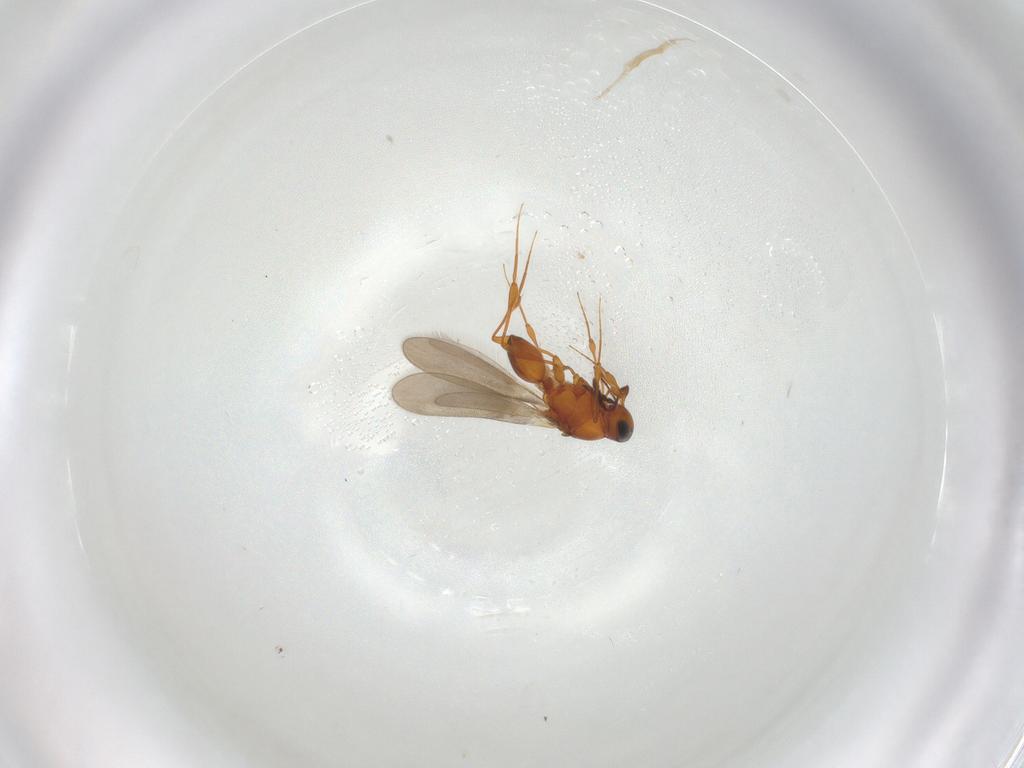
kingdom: Animalia
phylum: Arthropoda
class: Insecta
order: Hymenoptera
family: Platygastridae
